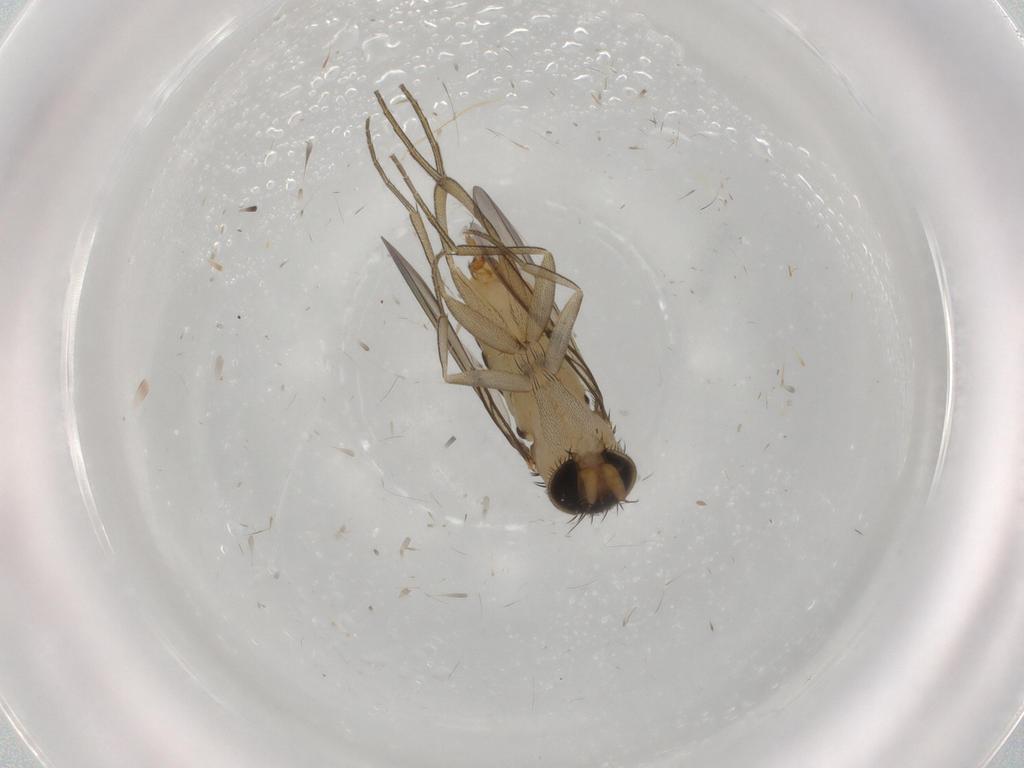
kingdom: Animalia
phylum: Arthropoda
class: Insecta
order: Diptera
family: Phoridae
